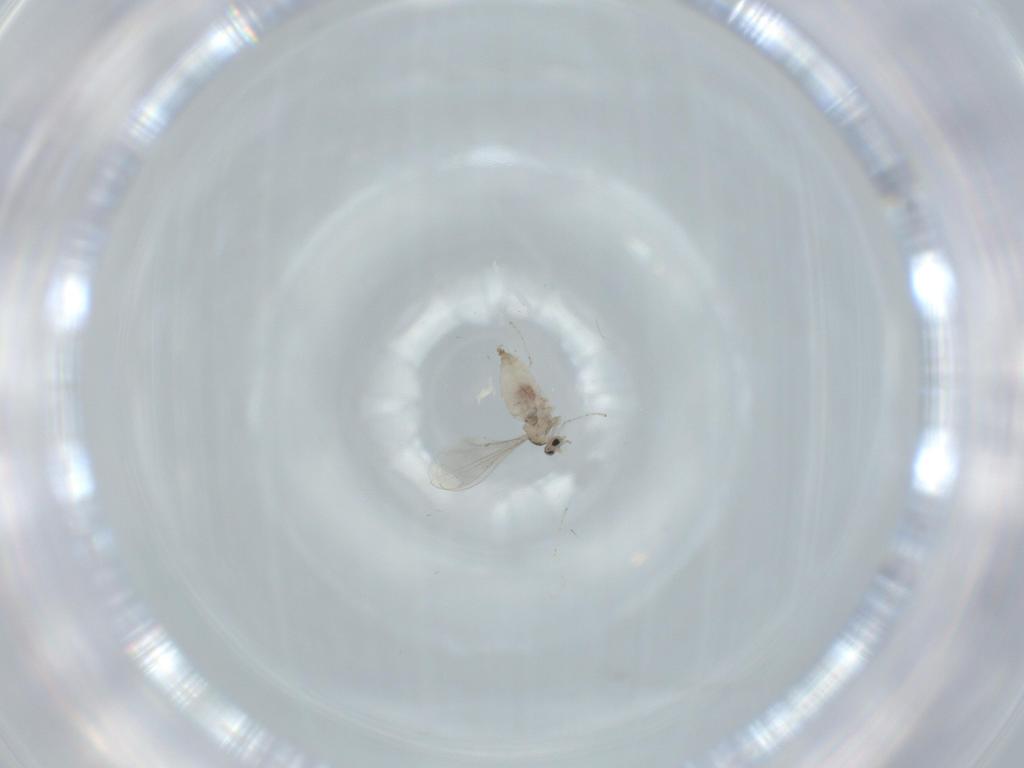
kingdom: Animalia
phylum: Arthropoda
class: Insecta
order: Diptera
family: Cecidomyiidae
